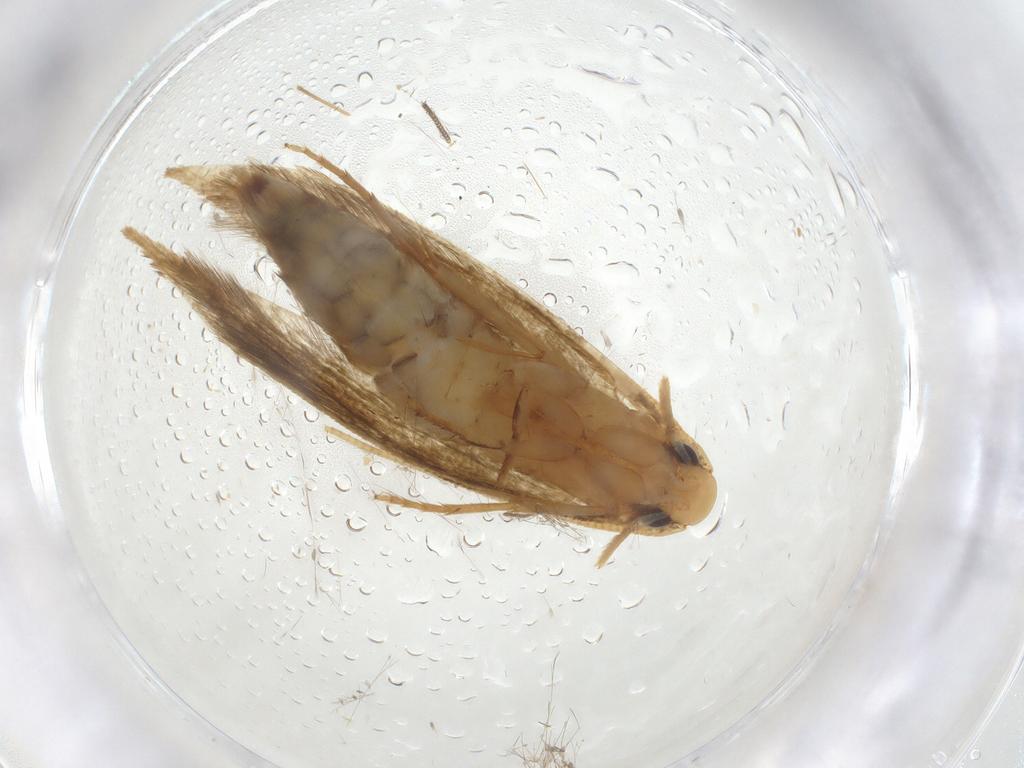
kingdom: Animalia
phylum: Arthropoda
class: Insecta
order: Lepidoptera
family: Tineidae
